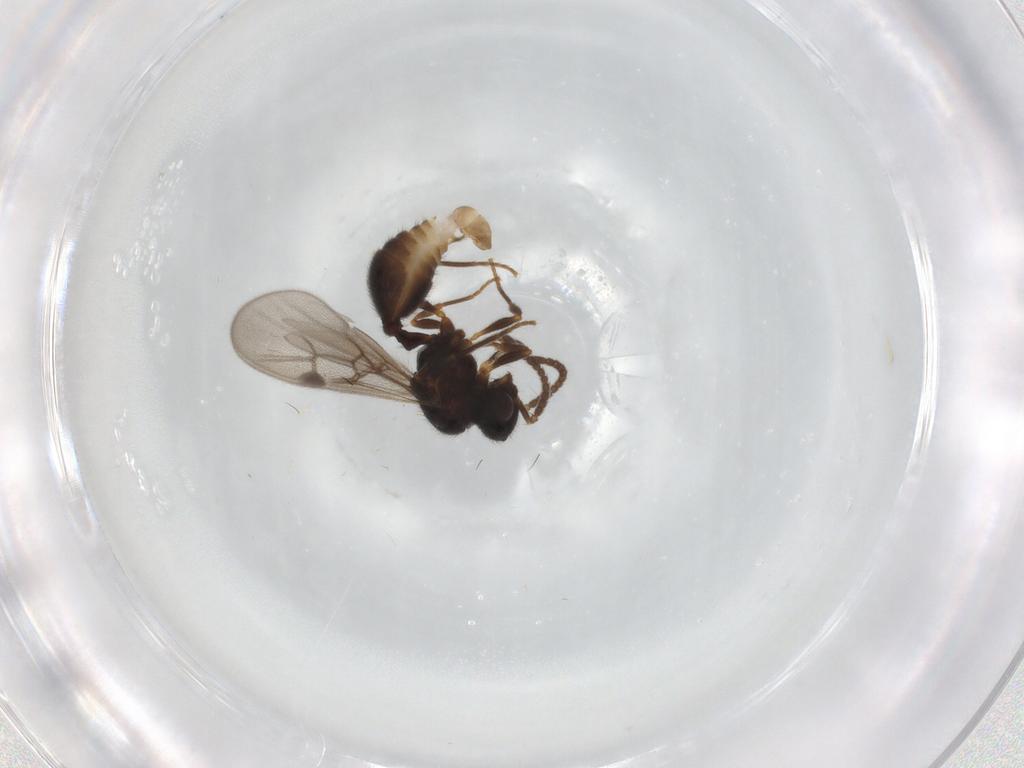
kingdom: Animalia
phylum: Arthropoda
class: Insecta
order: Hymenoptera
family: Formicidae
